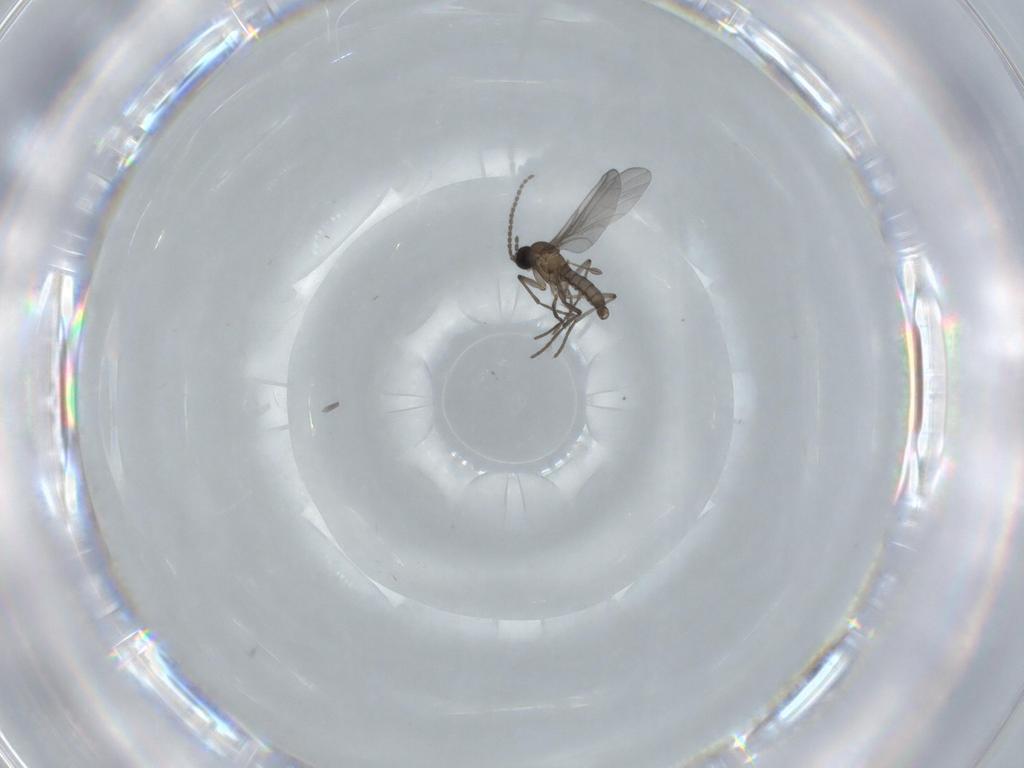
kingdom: Animalia
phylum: Arthropoda
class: Insecta
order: Diptera
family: Sciaridae
